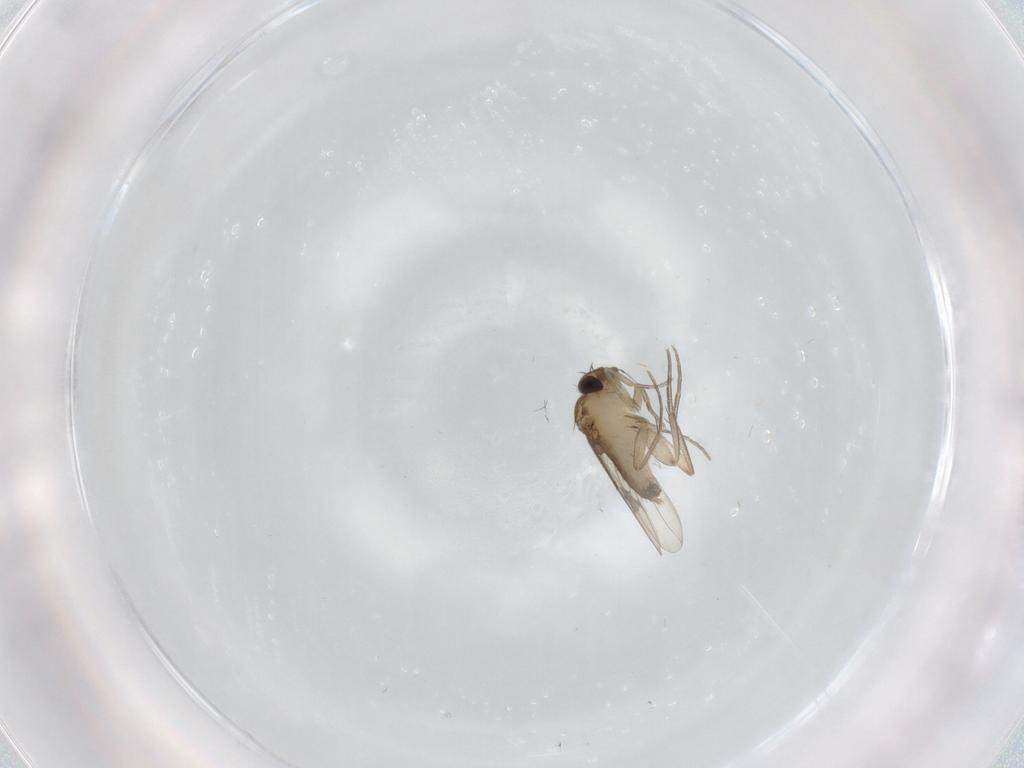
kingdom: Animalia
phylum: Arthropoda
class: Insecta
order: Diptera
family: Phoridae
